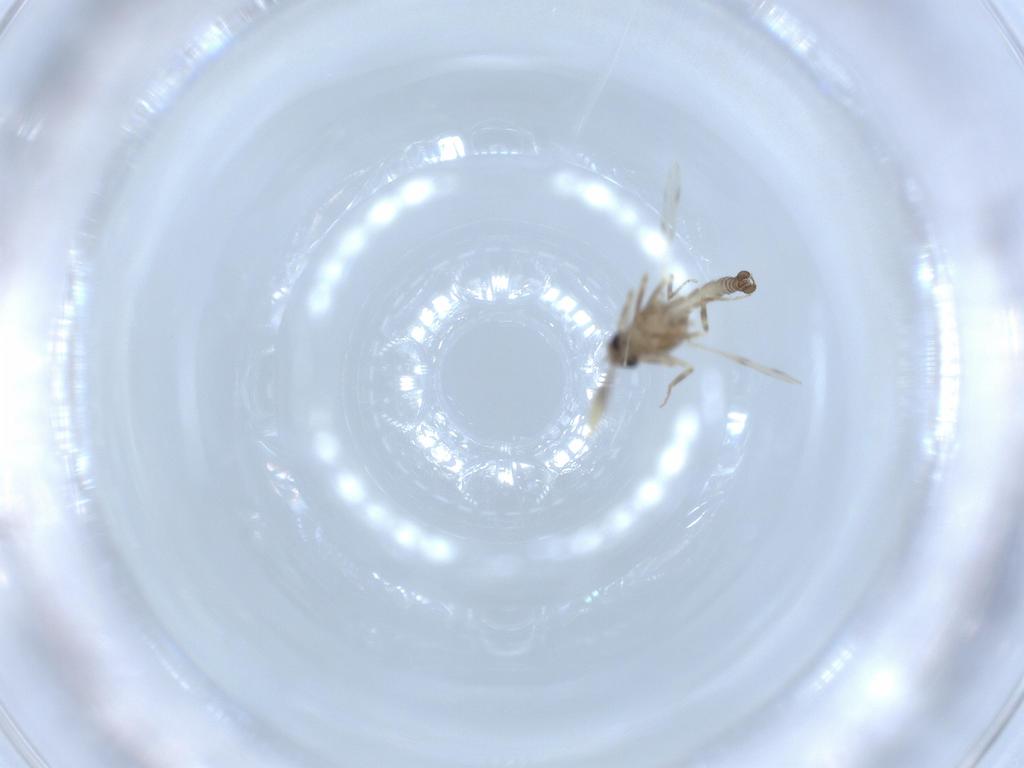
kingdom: Animalia
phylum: Arthropoda
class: Insecta
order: Diptera
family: Ceratopogonidae
